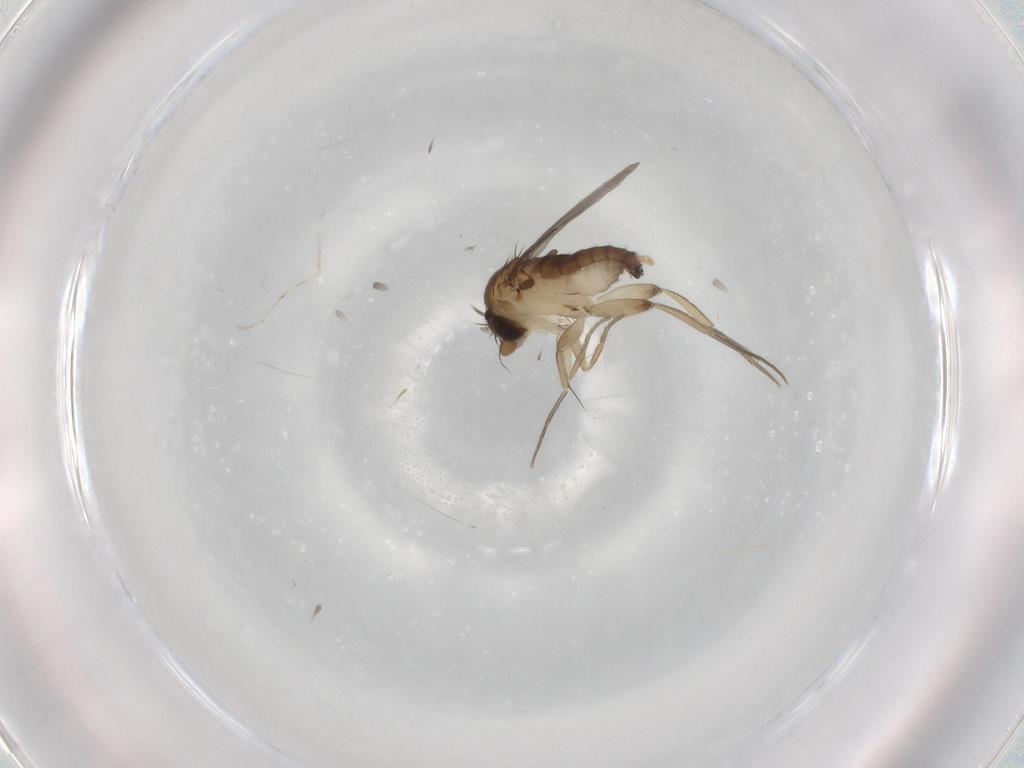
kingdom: Animalia
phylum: Arthropoda
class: Insecta
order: Diptera
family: Phoridae
